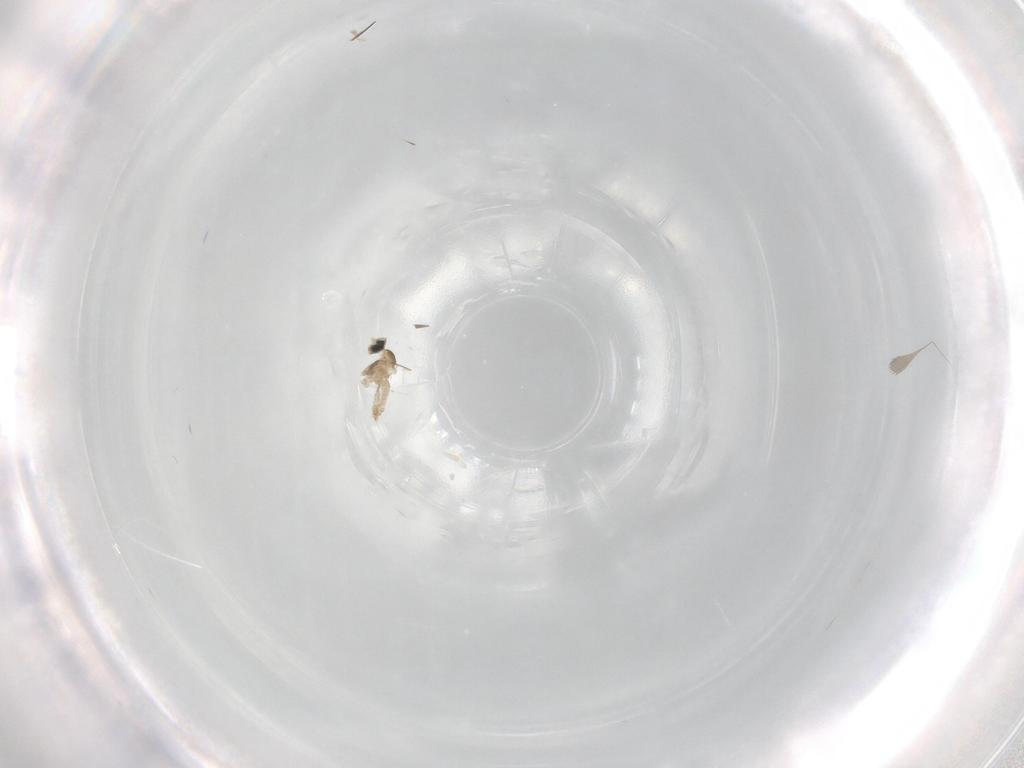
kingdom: Animalia
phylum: Arthropoda
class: Insecta
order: Diptera
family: Cecidomyiidae
